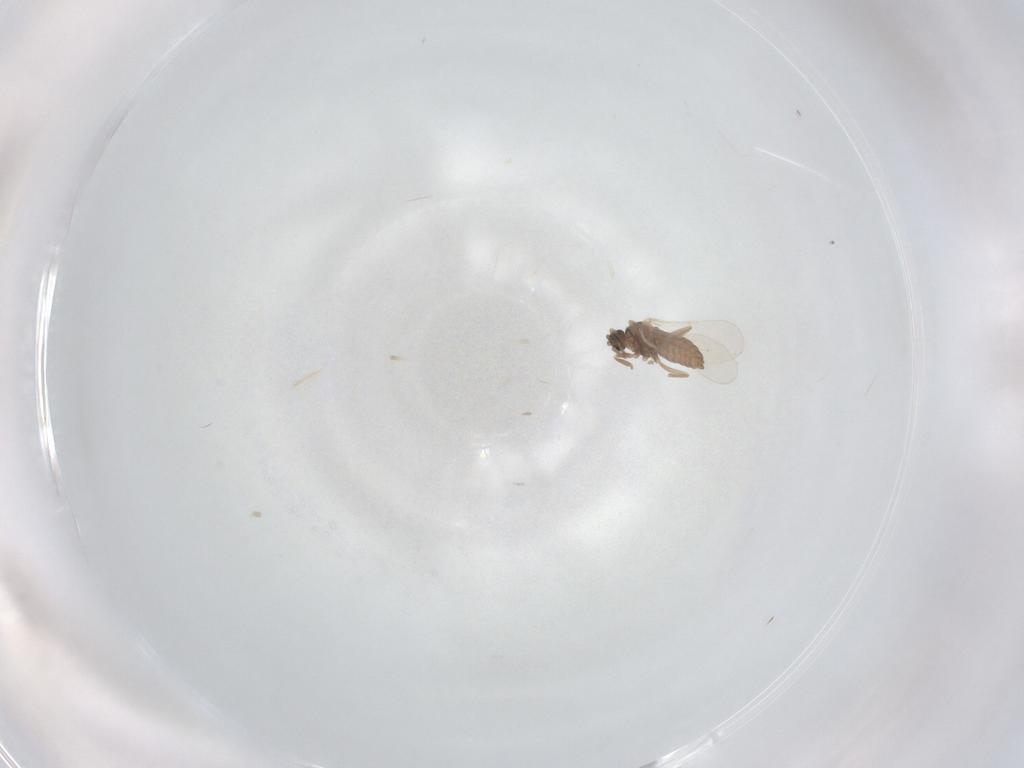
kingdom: Animalia
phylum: Arthropoda
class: Insecta
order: Diptera
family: Cecidomyiidae
